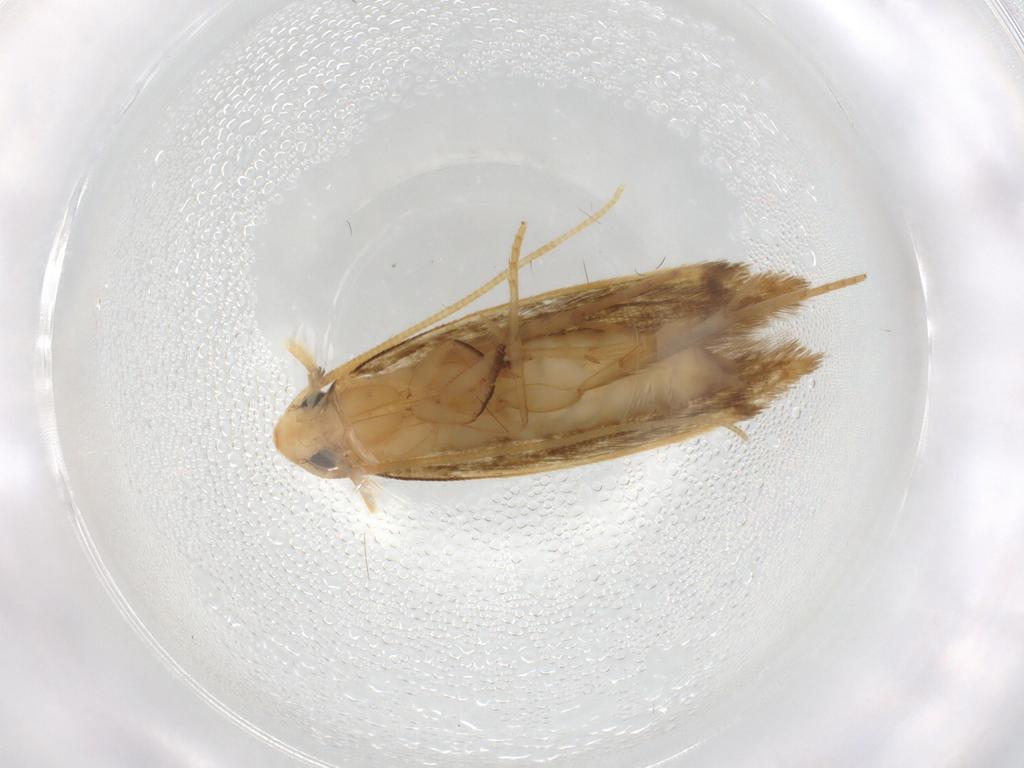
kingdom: Animalia
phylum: Arthropoda
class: Insecta
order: Lepidoptera
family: Tineidae
